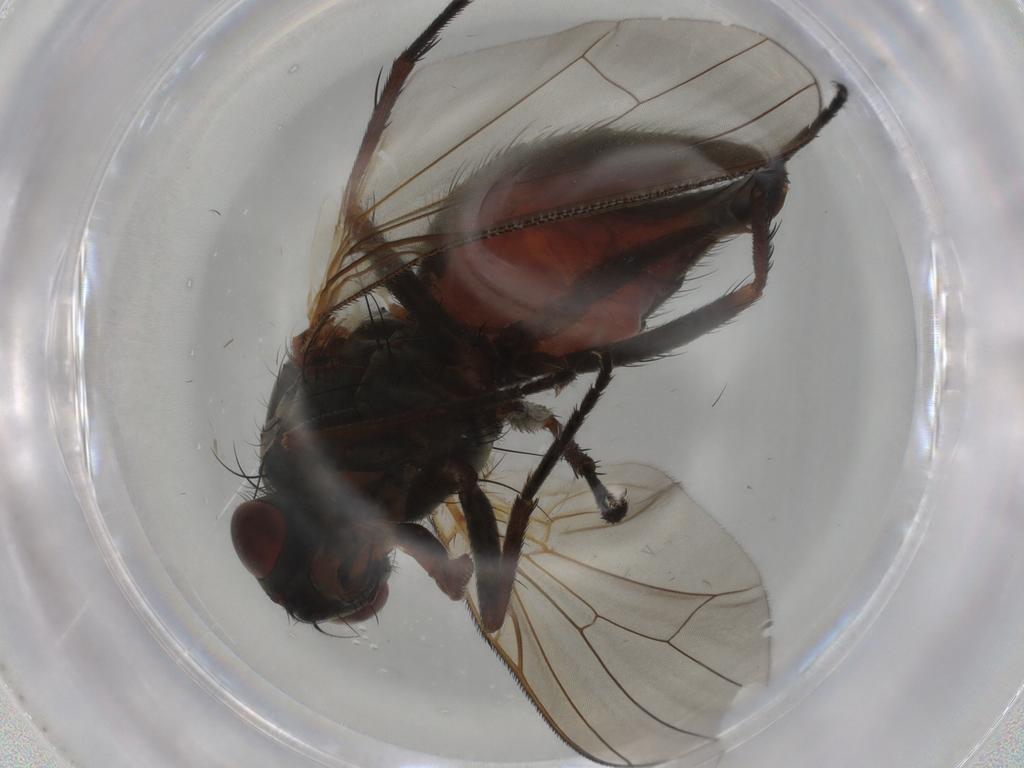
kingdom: Animalia
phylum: Arthropoda
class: Insecta
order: Diptera
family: Anthomyiidae
